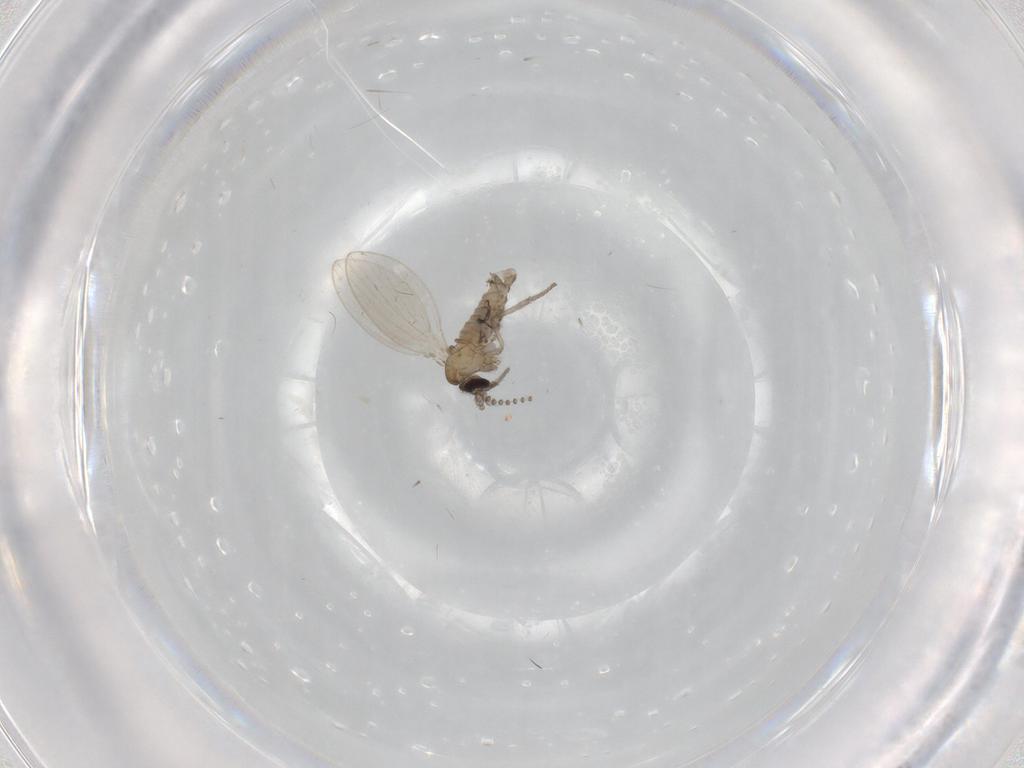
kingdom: Animalia
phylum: Arthropoda
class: Insecta
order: Diptera
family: Psychodidae
